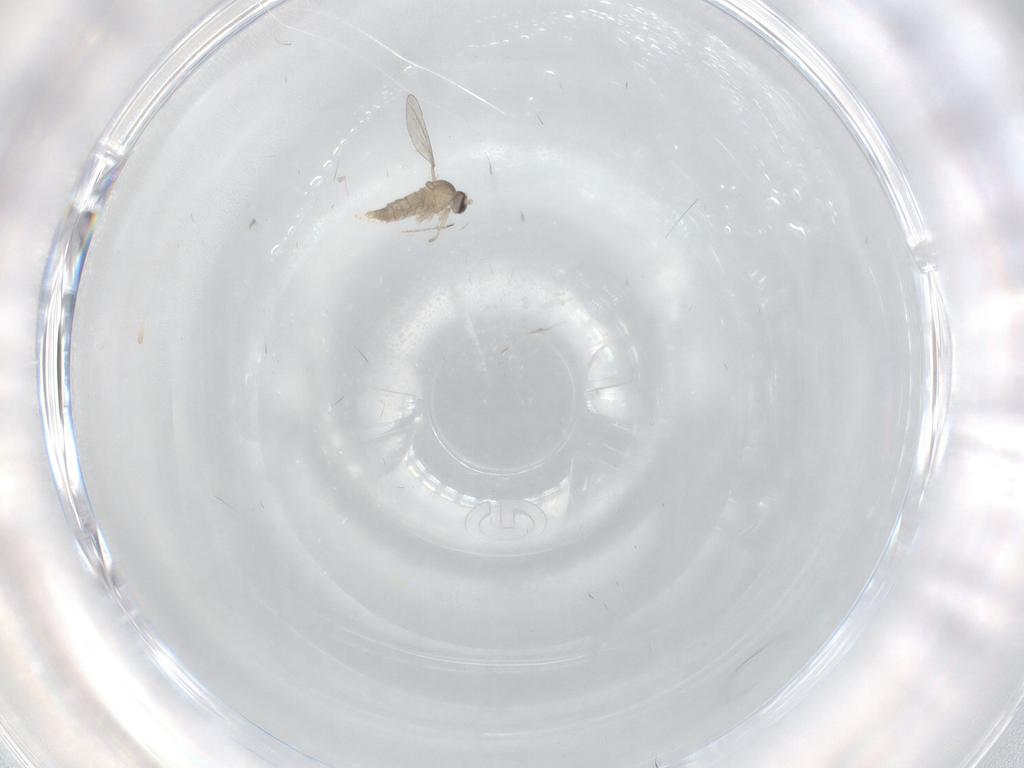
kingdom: Animalia
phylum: Arthropoda
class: Insecta
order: Diptera
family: Cecidomyiidae
